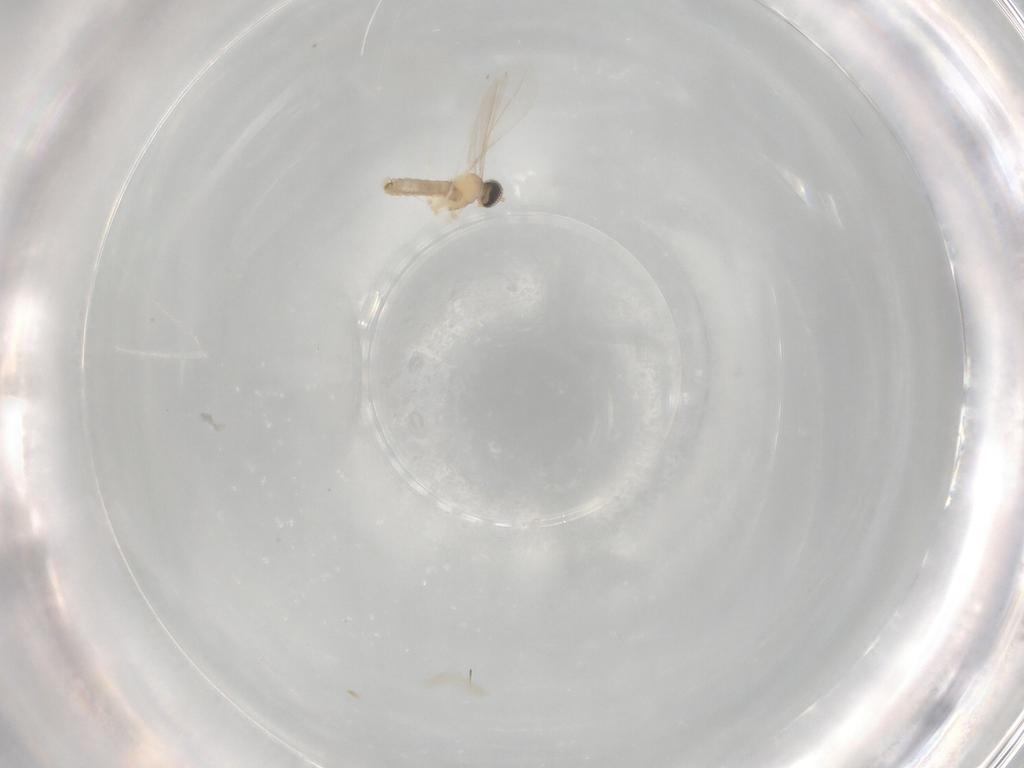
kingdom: Animalia
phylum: Arthropoda
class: Insecta
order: Diptera
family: Cecidomyiidae
